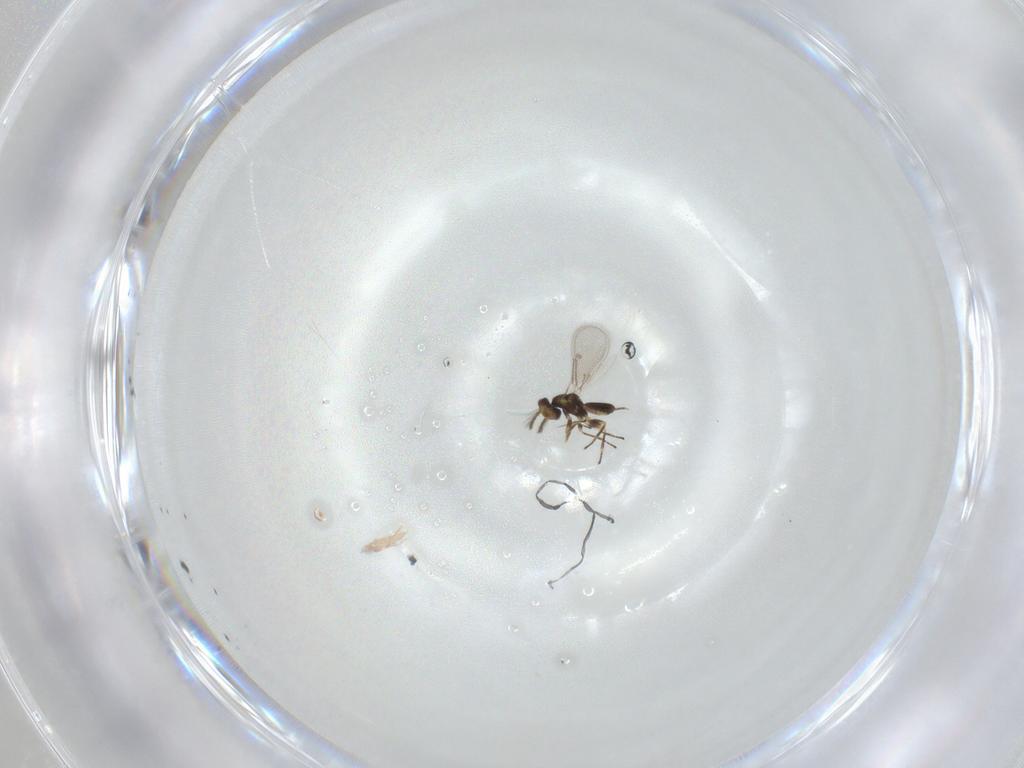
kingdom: Animalia
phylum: Arthropoda
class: Insecta
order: Hymenoptera
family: Eulophidae
